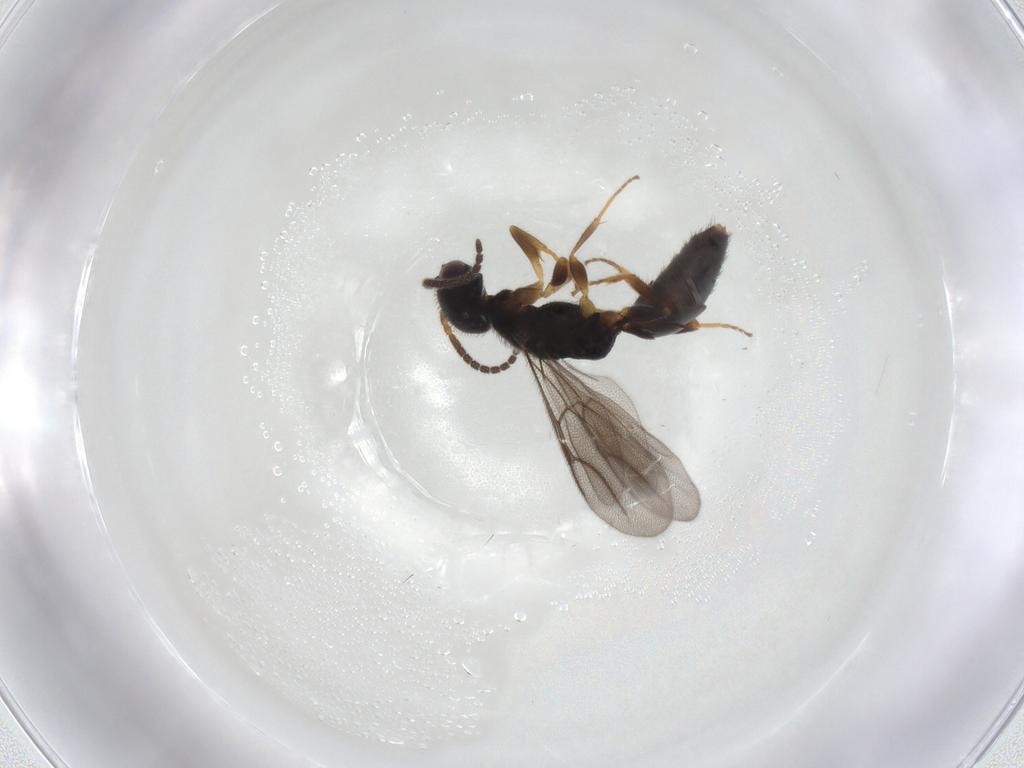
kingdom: Animalia
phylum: Arthropoda
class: Insecta
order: Hymenoptera
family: Bethylidae
